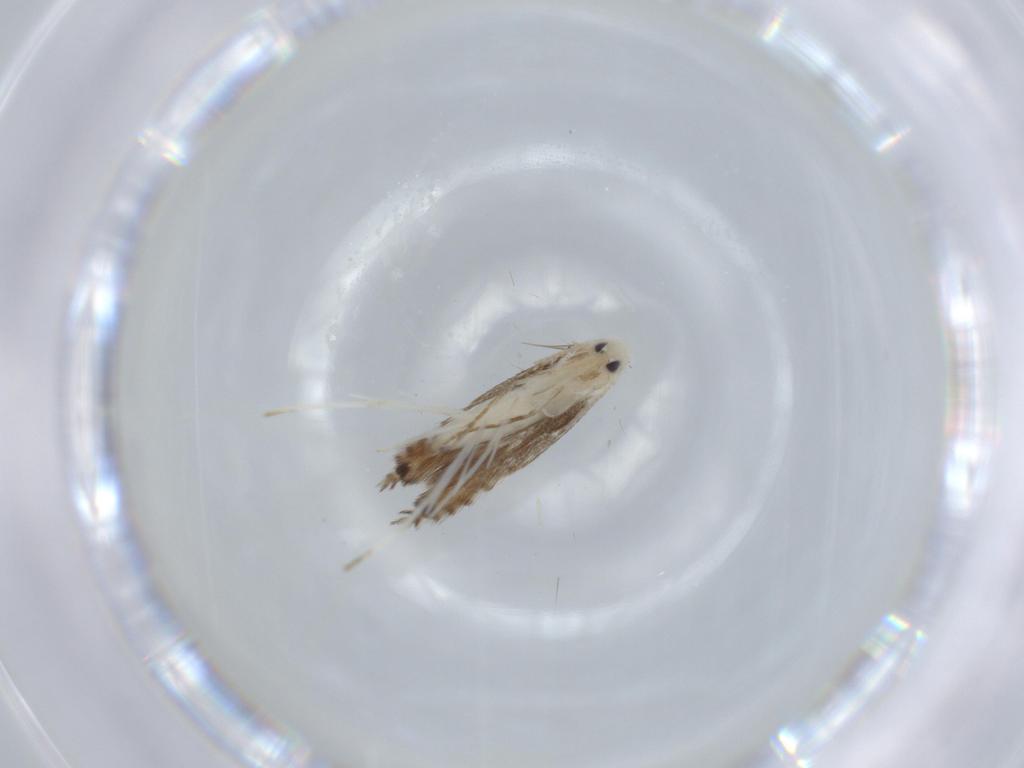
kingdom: Animalia
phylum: Arthropoda
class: Insecta
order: Lepidoptera
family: Nepticulidae
